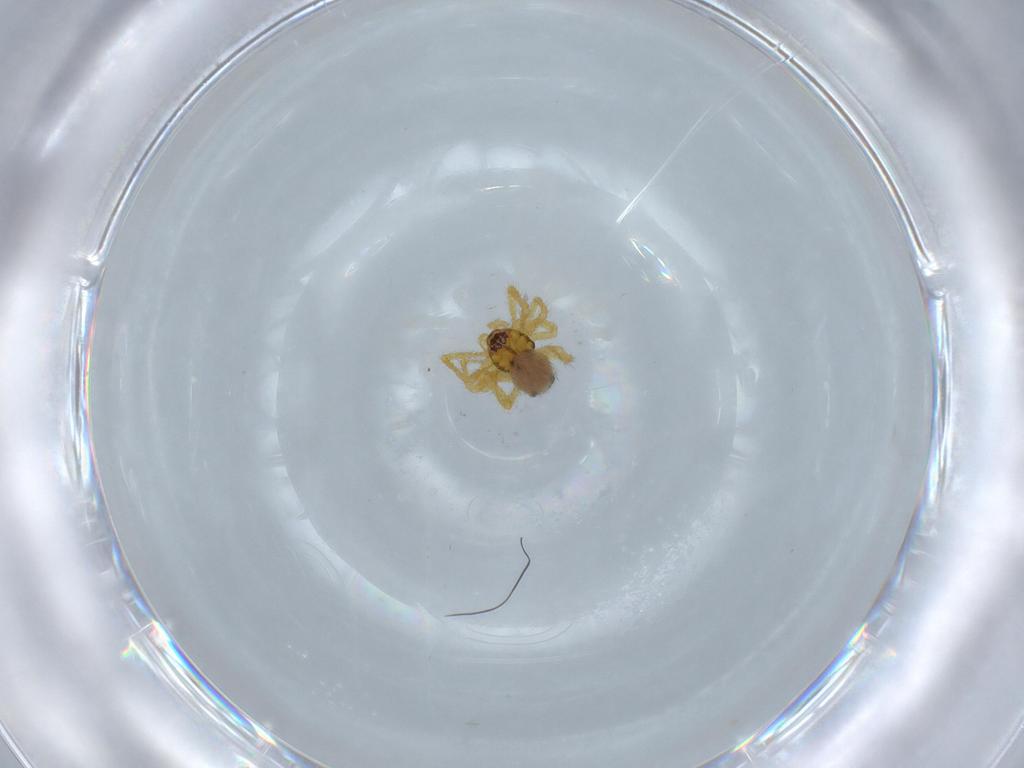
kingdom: Animalia
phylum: Arthropoda
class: Arachnida
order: Araneae
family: Theridiidae
